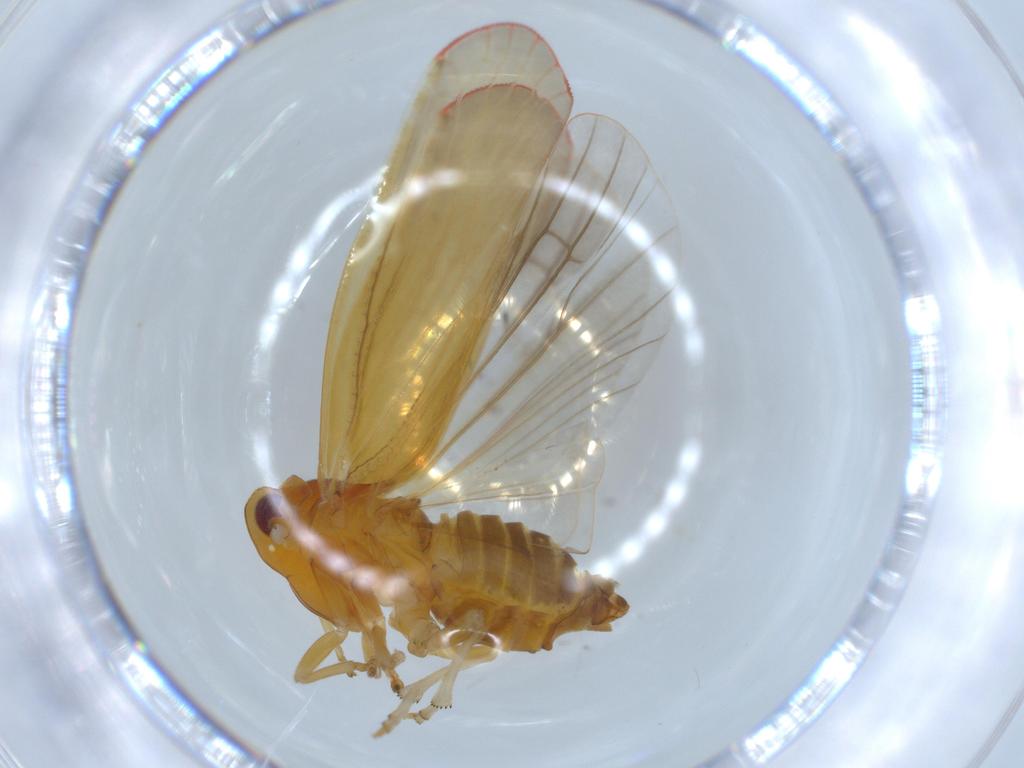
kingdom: Animalia
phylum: Arthropoda
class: Insecta
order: Hemiptera
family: Derbidae
